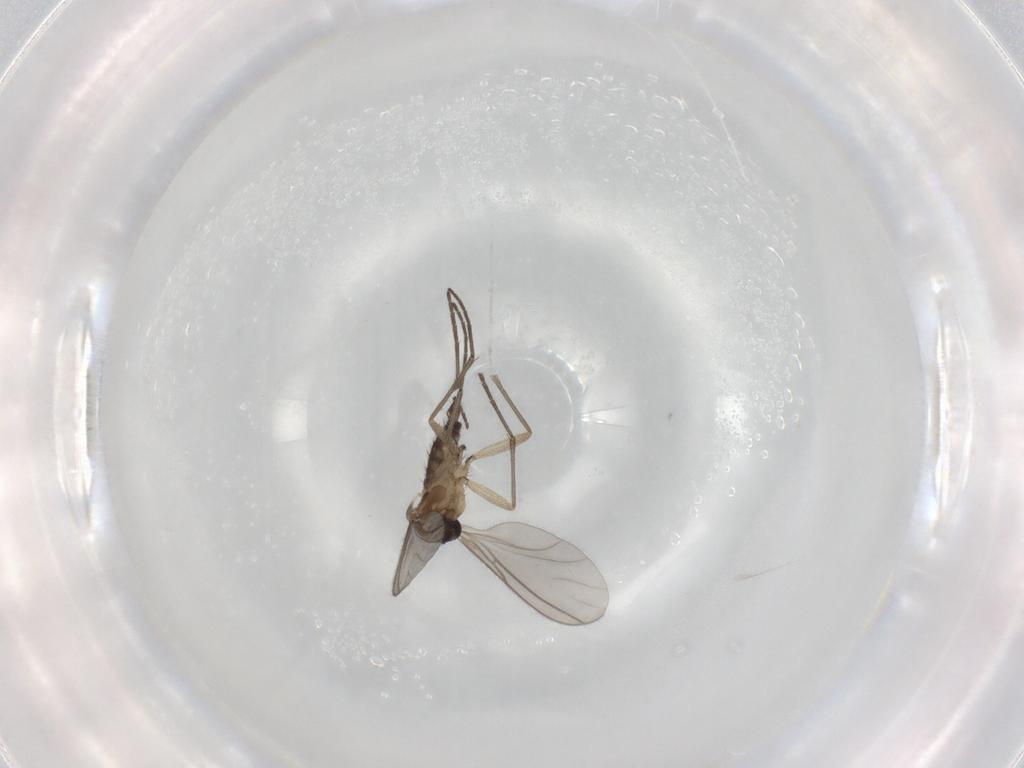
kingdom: Animalia
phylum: Arthropoda
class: Insecta
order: Diptera
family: Sciaridae
